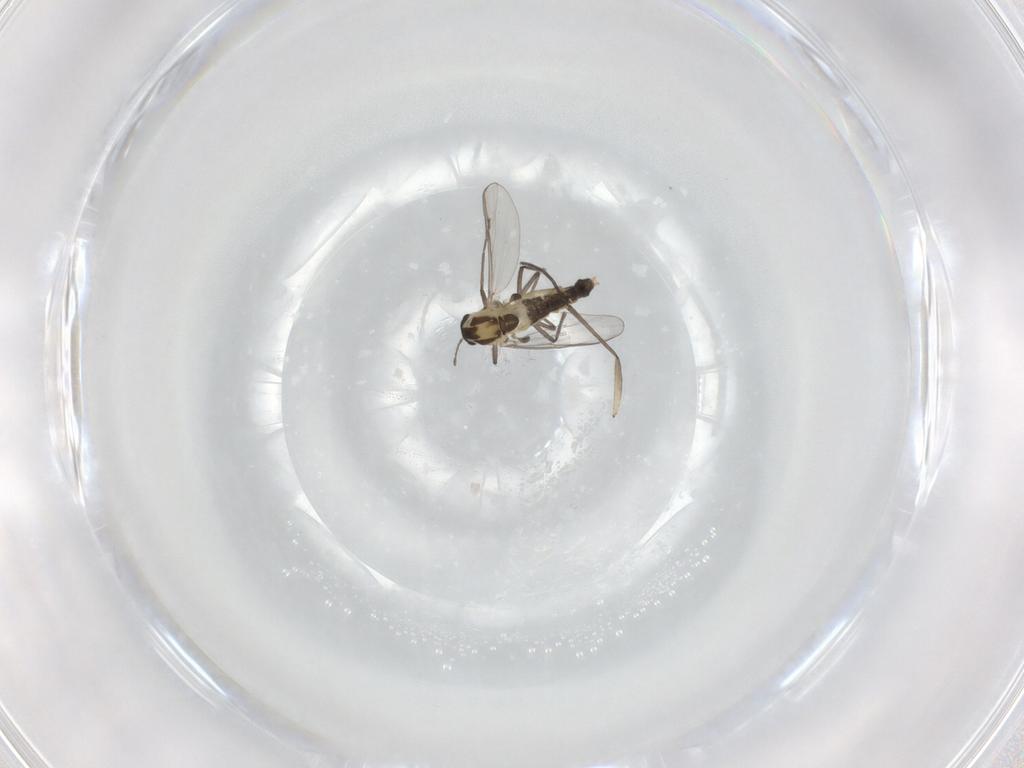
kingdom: Animalia
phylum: Arthropoda
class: Insecta
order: Diptera
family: Chironomidae
